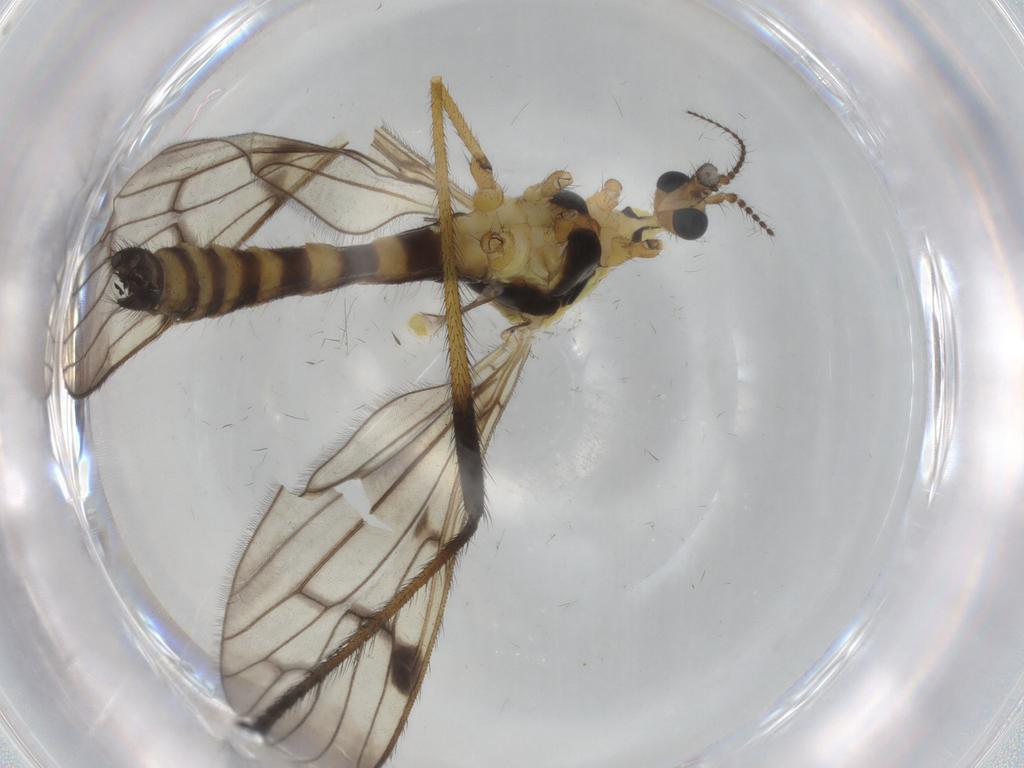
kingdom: Animalia
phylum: Arthropoda
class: Insecta
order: Diptera
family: Limoniidae
